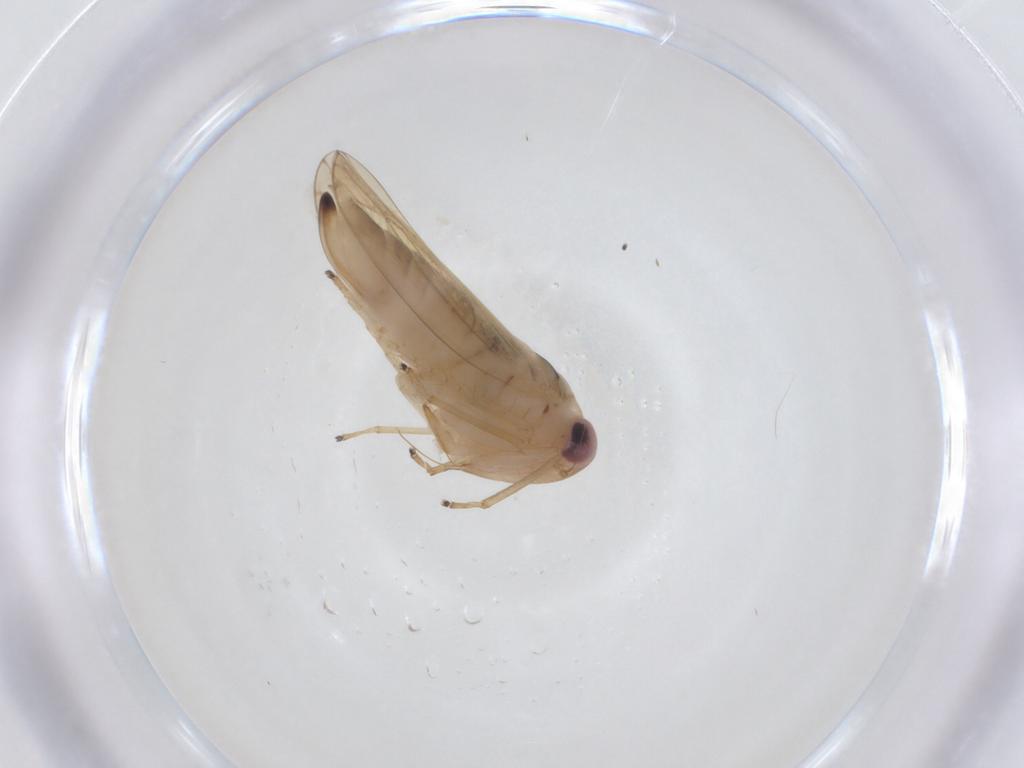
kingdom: Animalia
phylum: Arthropoda
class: Insecta
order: Hemiptera
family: Cicadellidae
